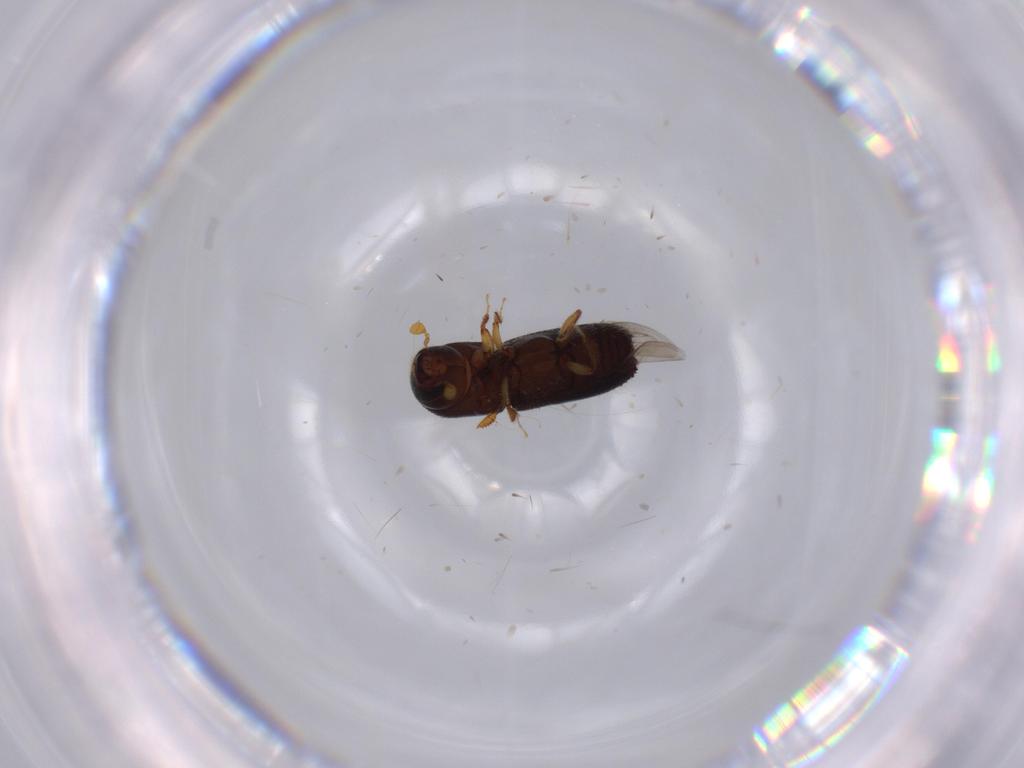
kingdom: Animalia
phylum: Arthropoda
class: Insecta
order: Coleoptera
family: Curculionidae
